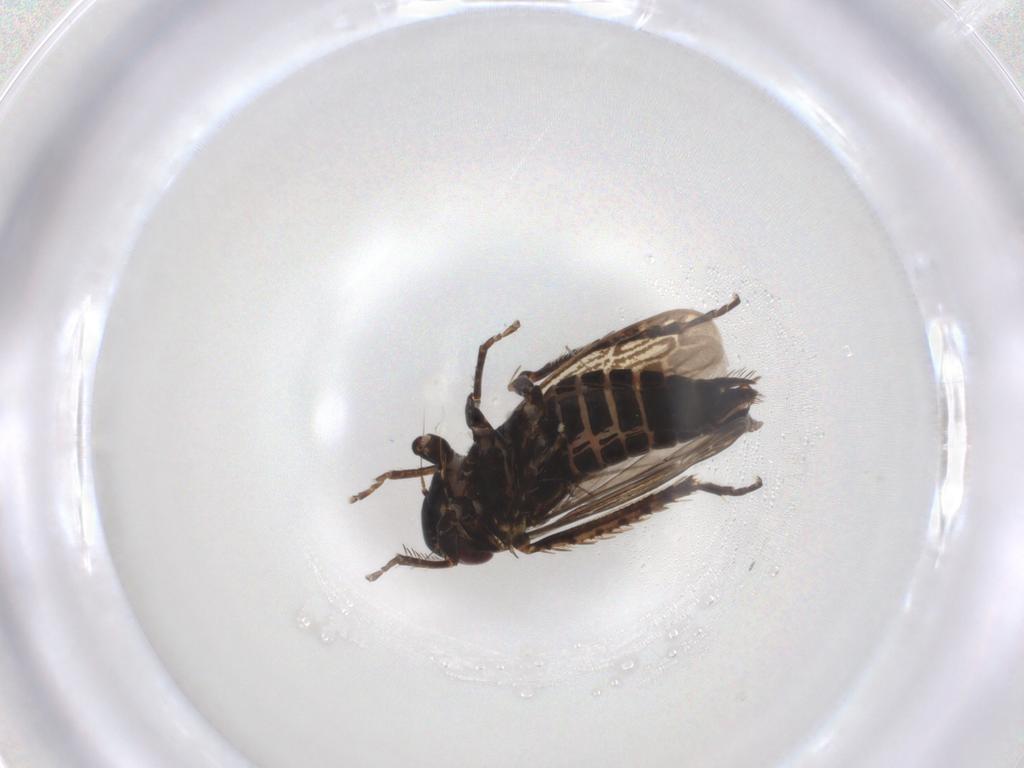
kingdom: Animalia
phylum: Arthropoda
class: Insecta
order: Hemiptera
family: Cicadellidae
